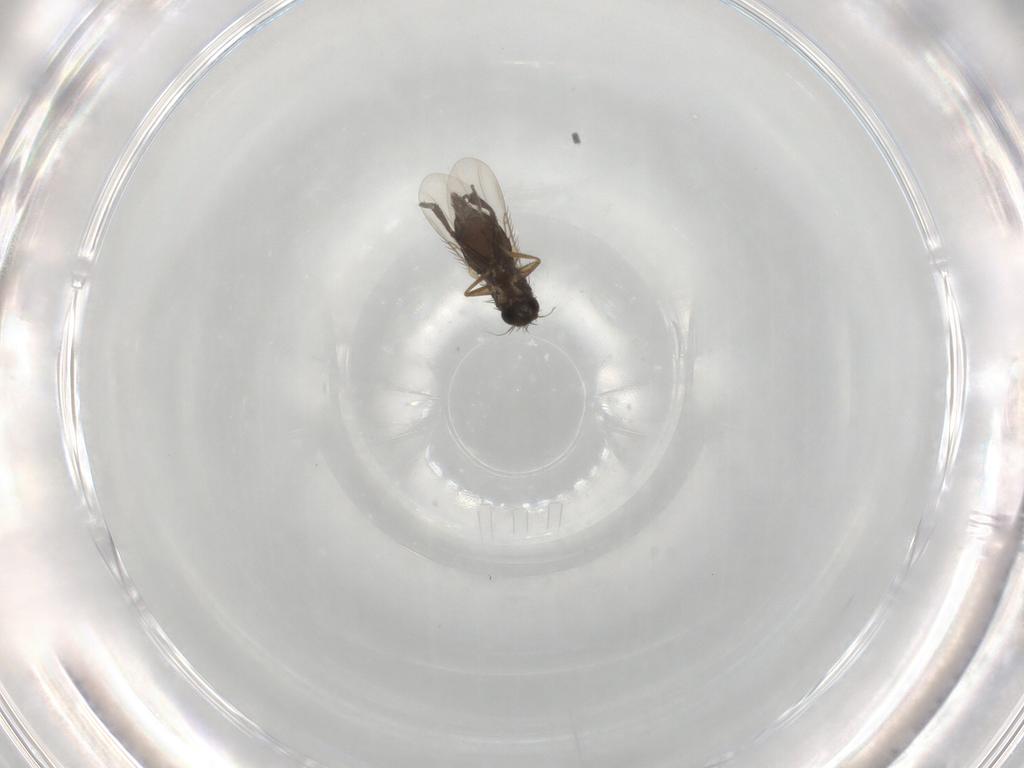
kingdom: Animalia
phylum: Arthropoda
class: Insecta
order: Diptera
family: Phoridae
